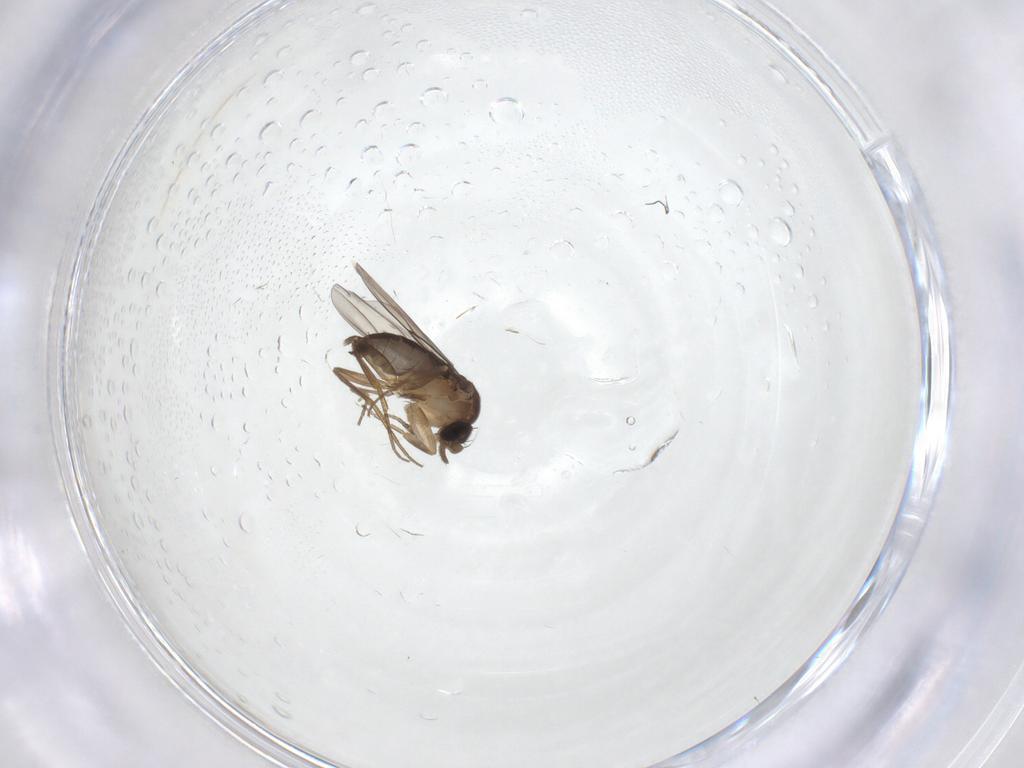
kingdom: Animalia
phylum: Arthropoda
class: Insecta
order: Diptera
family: Phoridae
